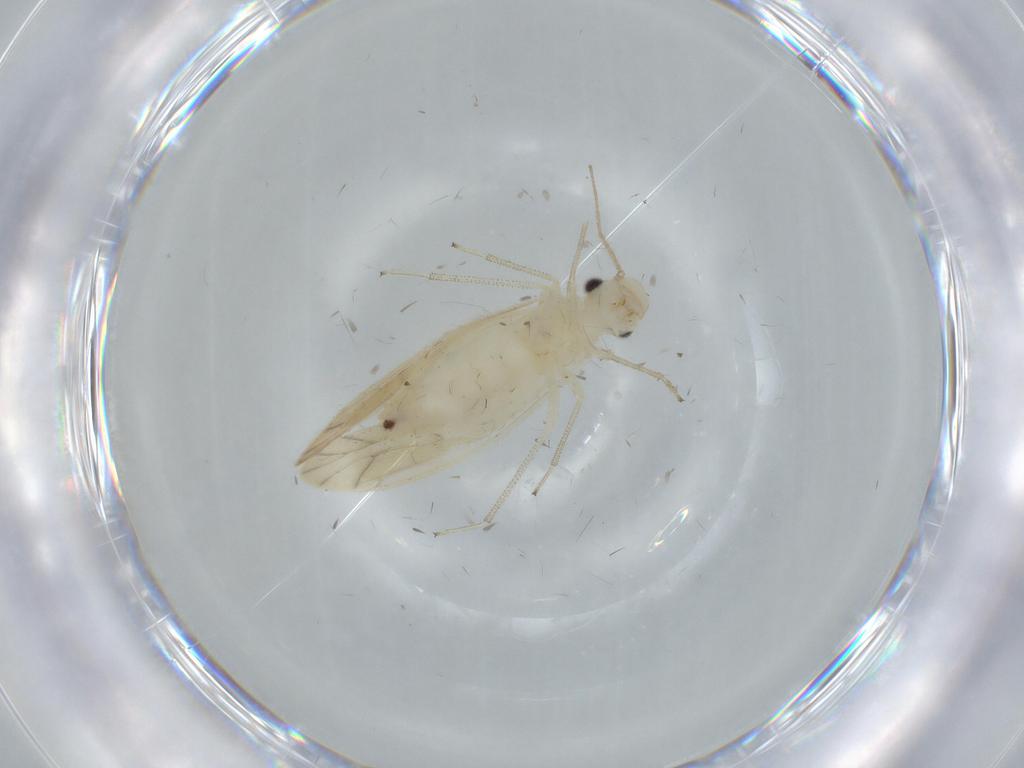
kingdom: Animalia
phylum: Arthropoda
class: Insecta
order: Psocodea
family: Caeciliusidae
